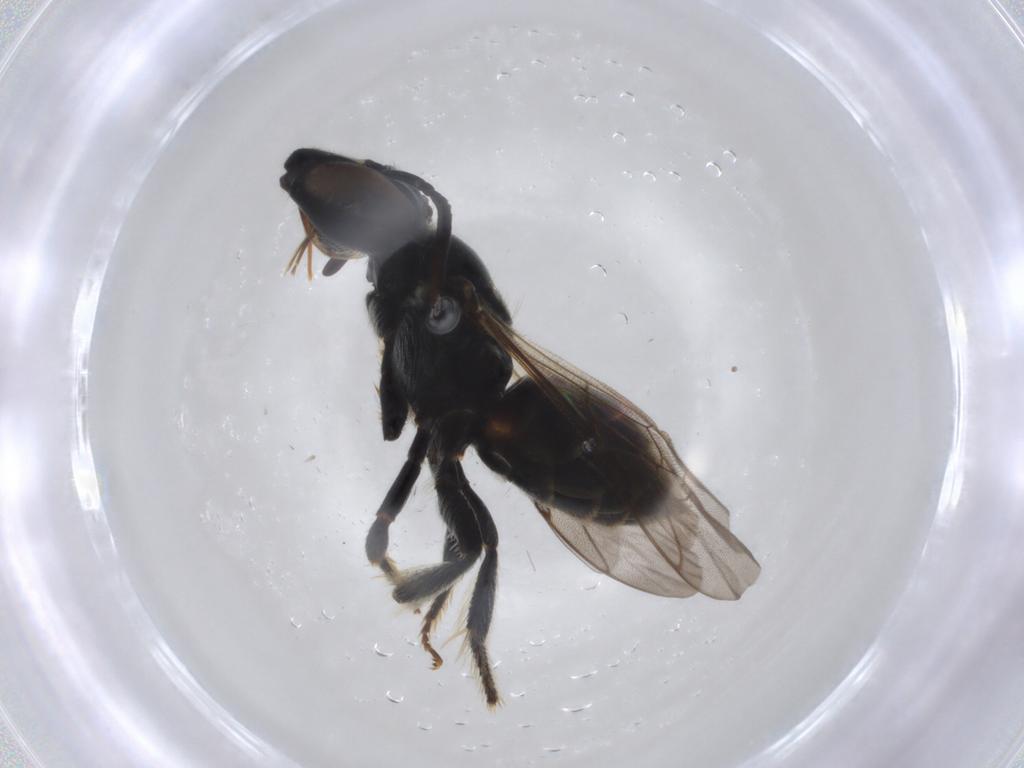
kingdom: Animalia
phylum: Arthropoda
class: Insecta
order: Hymenoptera
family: Apidae
